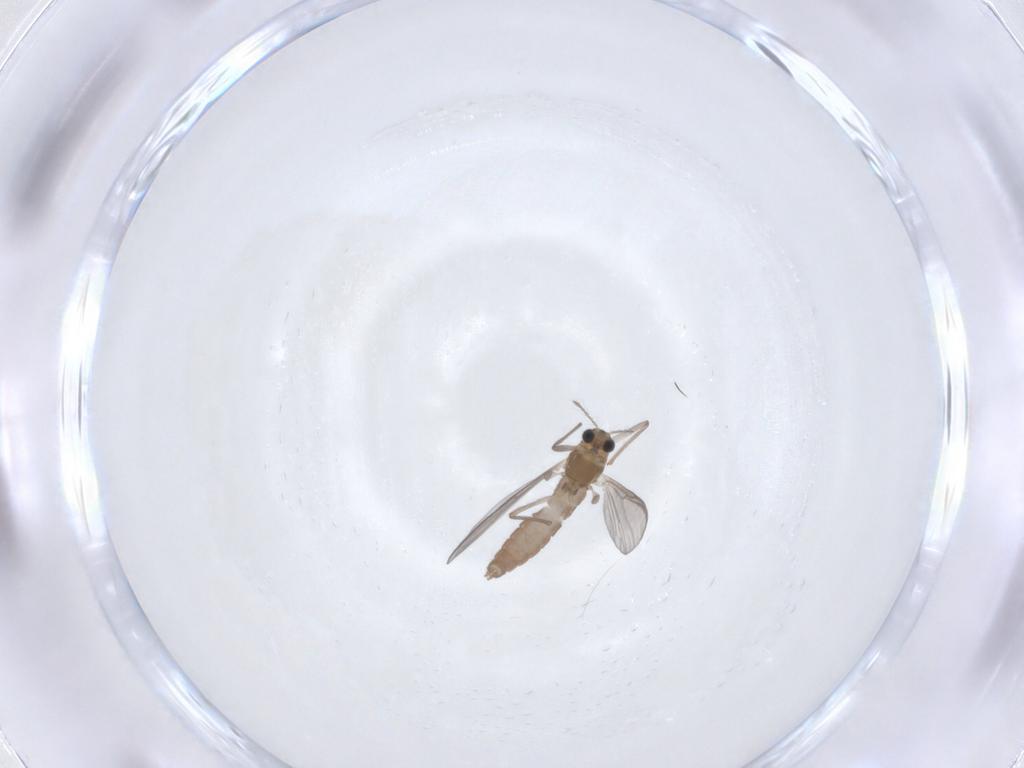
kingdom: Animalia
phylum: Arthropoda
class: Insecta
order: Diptera
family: Chironomidae
